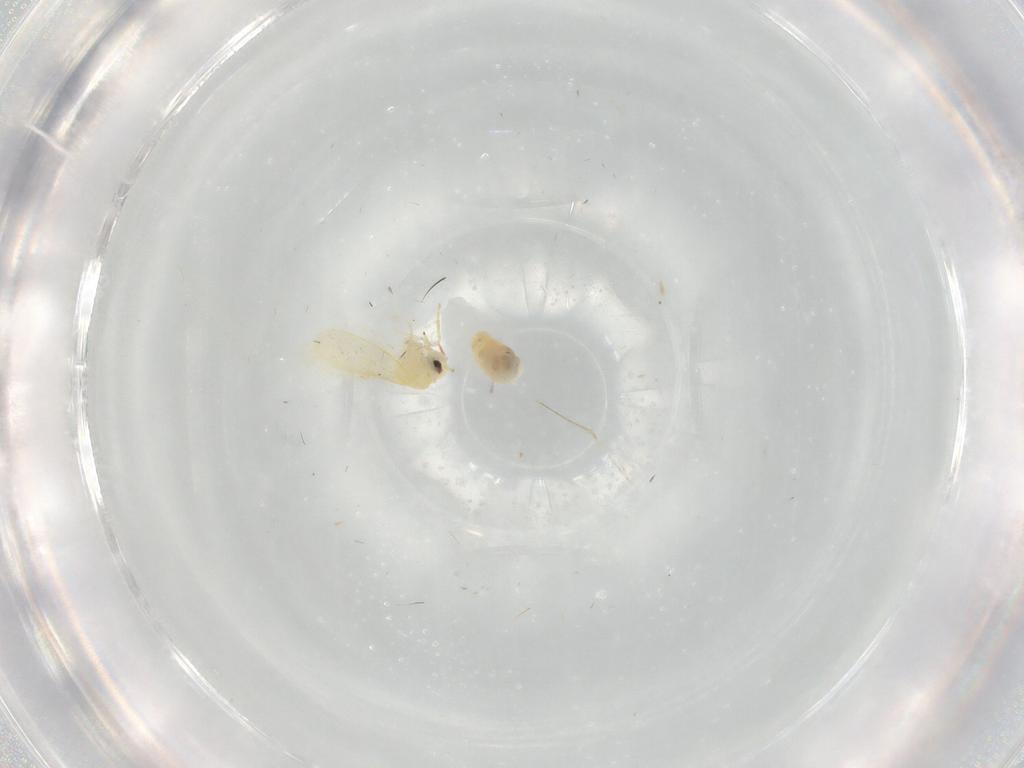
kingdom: Animalia
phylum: Arthropoda
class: Insecta
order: Hemiptera
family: Aleyrodidae
